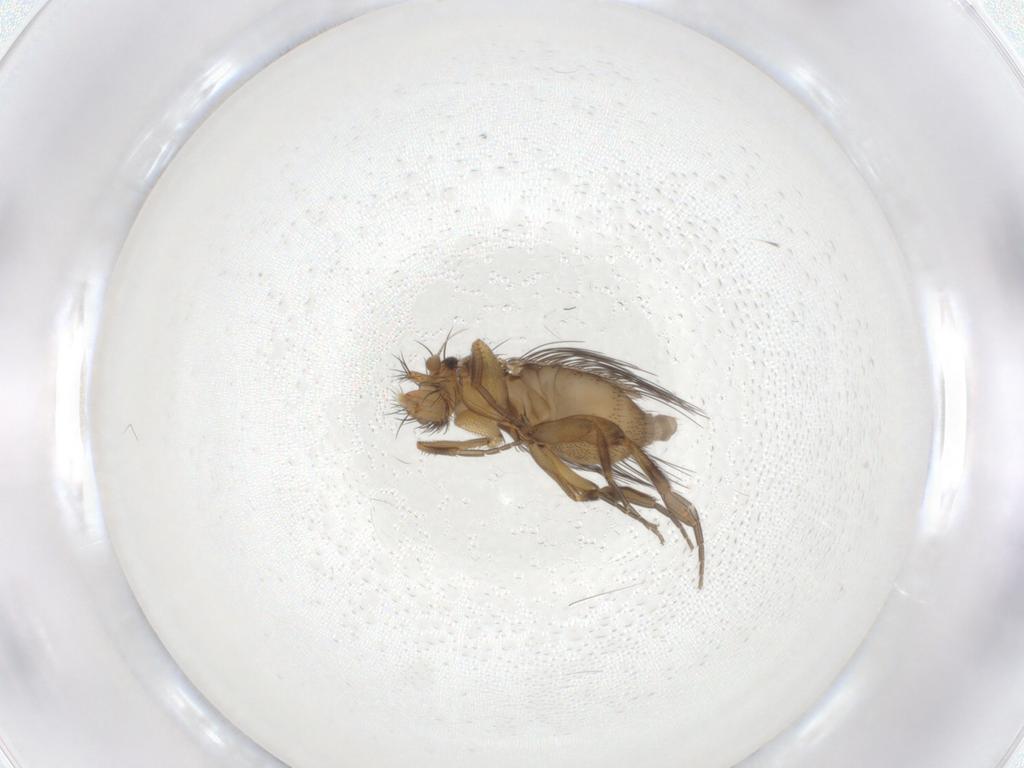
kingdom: Animalia
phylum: Arthropoda
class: Insecta
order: Diptera
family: Phoridae
